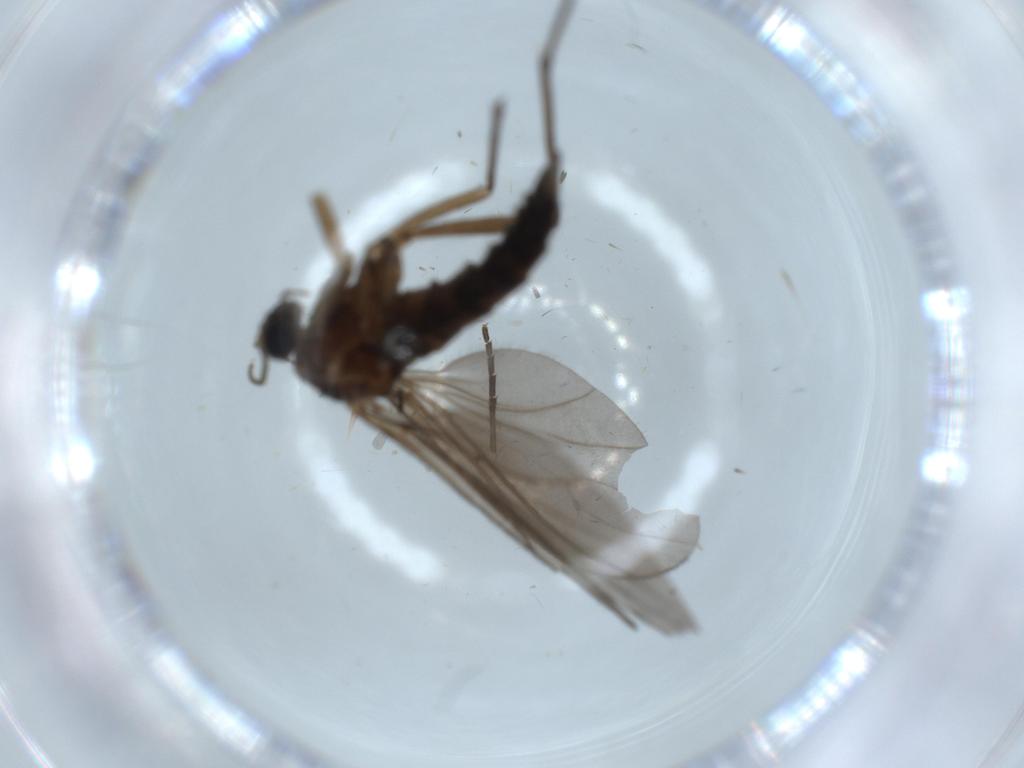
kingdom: Animalia
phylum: Arthropoda
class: Insecta
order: Diptera
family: Sciaridae
